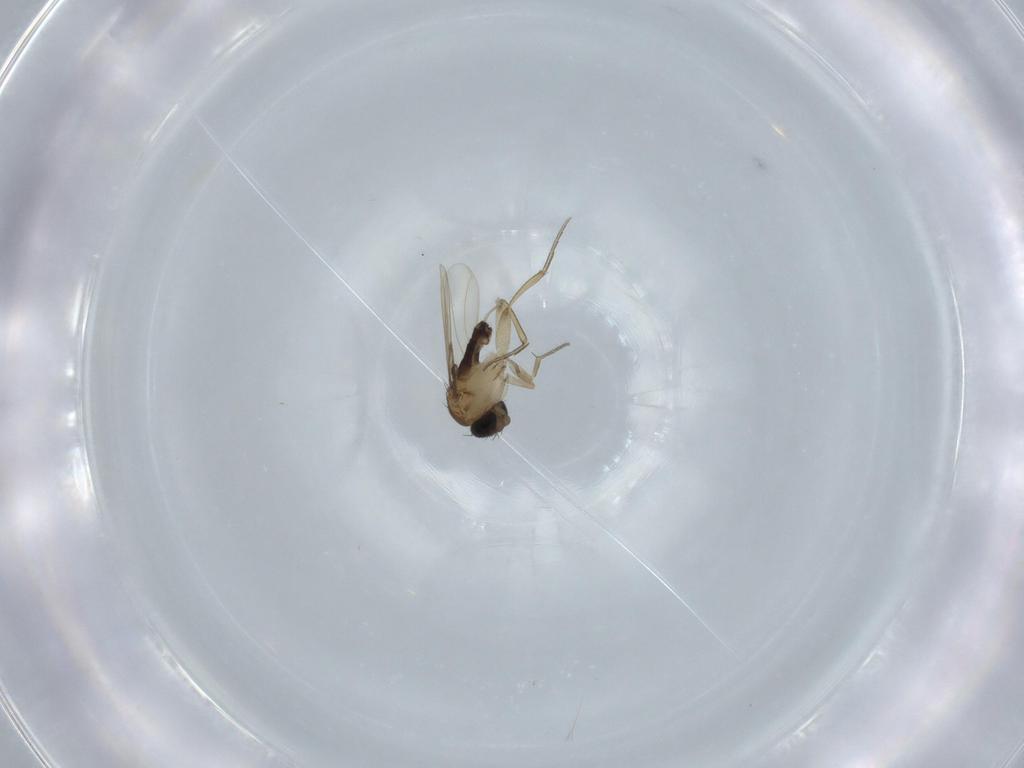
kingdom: Animalia
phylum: Arthropoda
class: Insecta
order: Diptera
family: Phoridae
